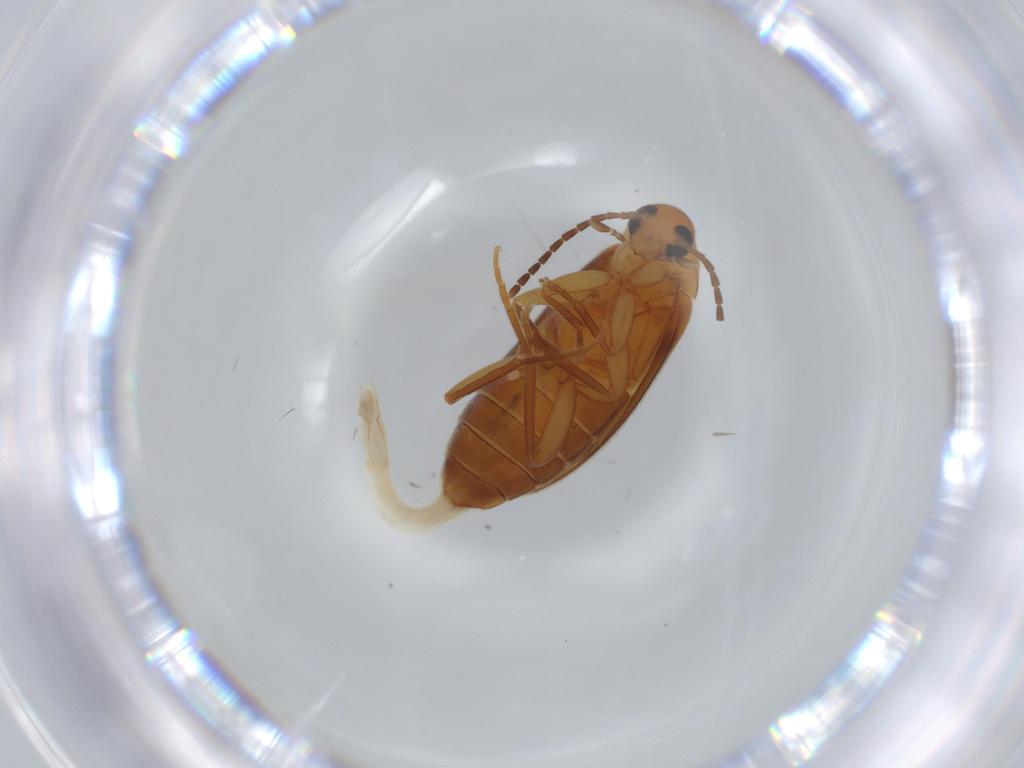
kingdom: Animalia
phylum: Arthropoda
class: Insecta
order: Coleoptera
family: Scraptiidae
